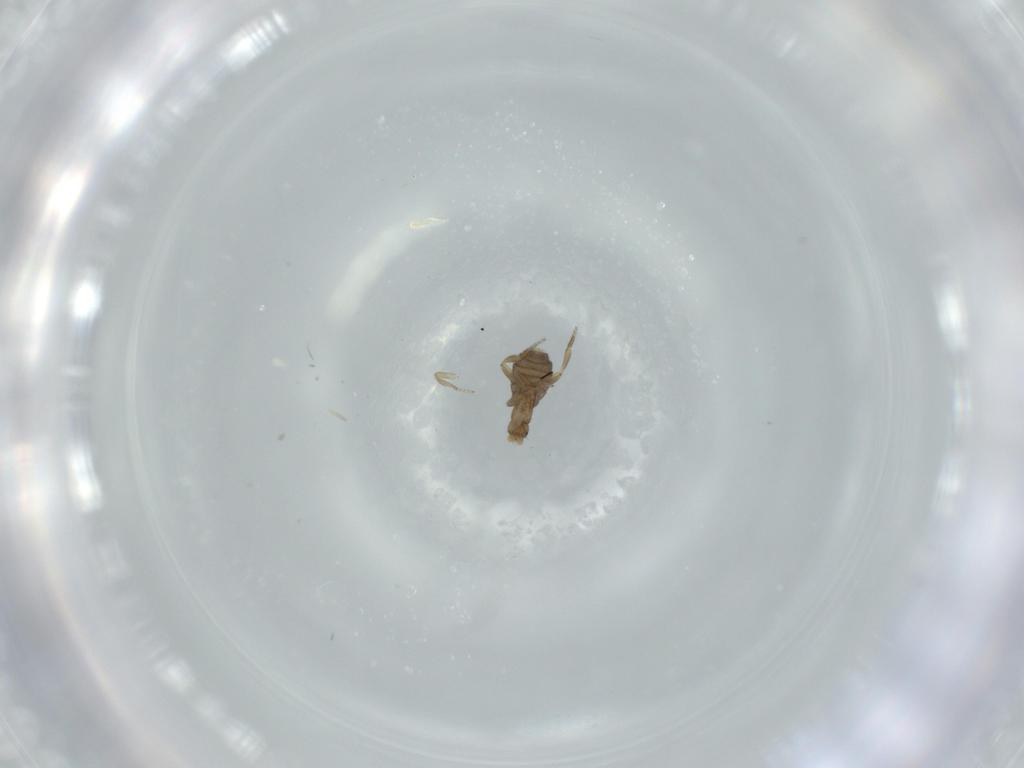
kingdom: Animalia
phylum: Arthropoda
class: Insecta
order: Diptera
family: Phoridae
